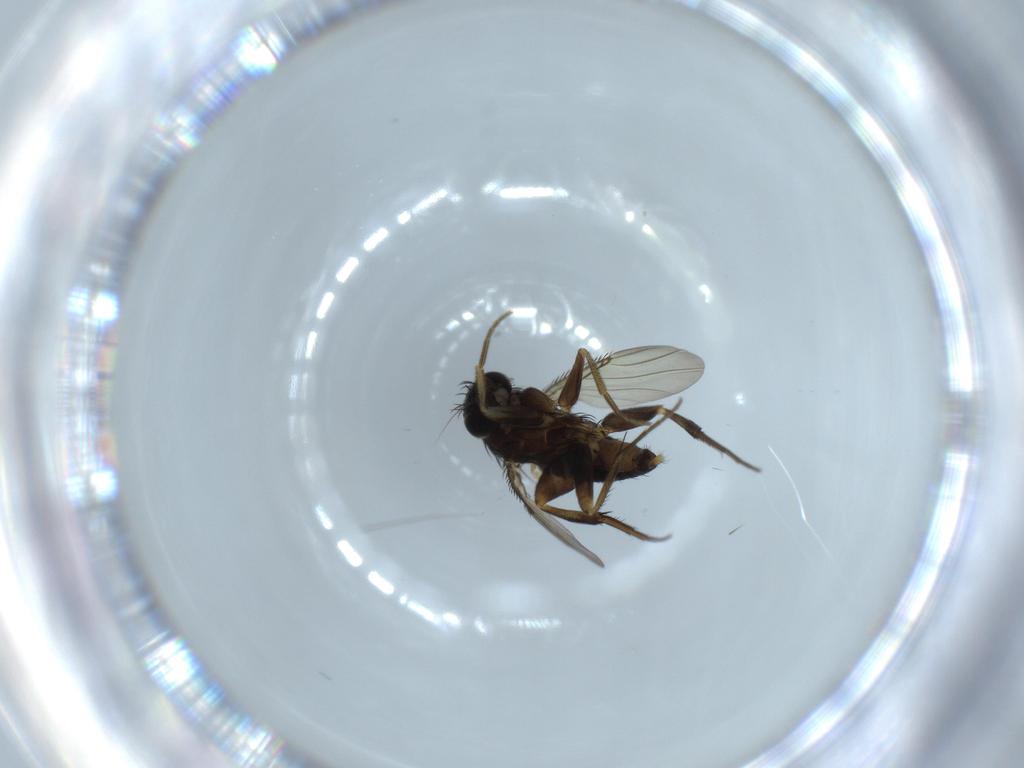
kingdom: Animalia
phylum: Arthropoda
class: Insecta
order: Diptera
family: Phoridae
